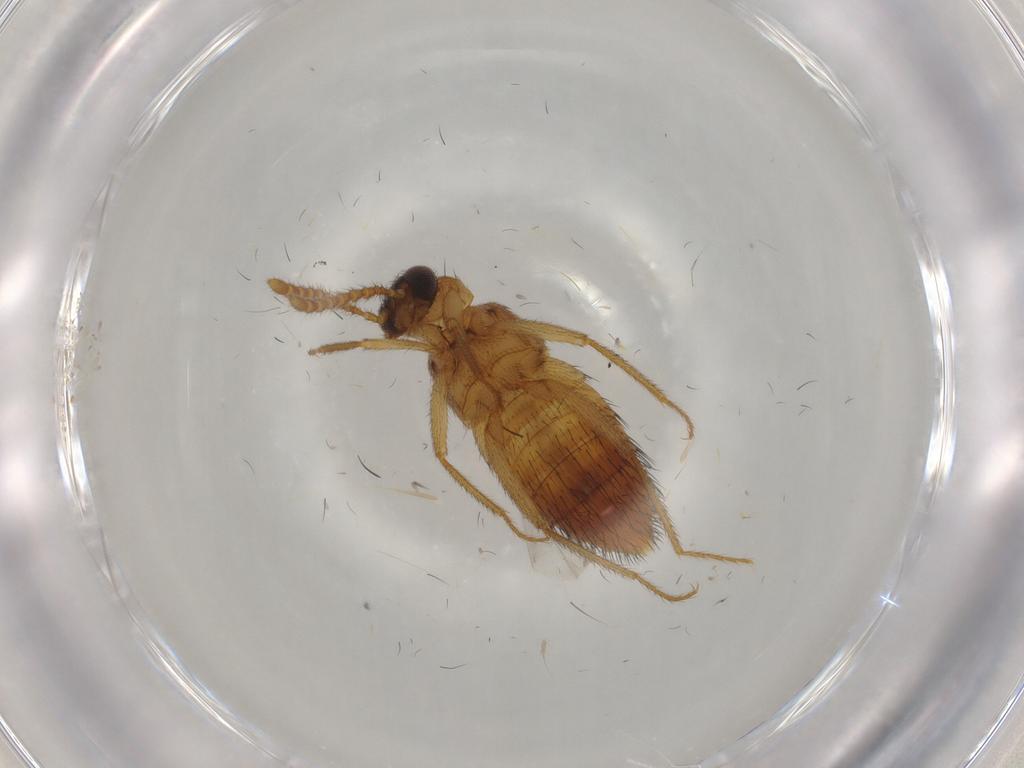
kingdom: Animalia
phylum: Arthropoda
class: Insecta
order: Coleoptera
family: Staphylinidae
